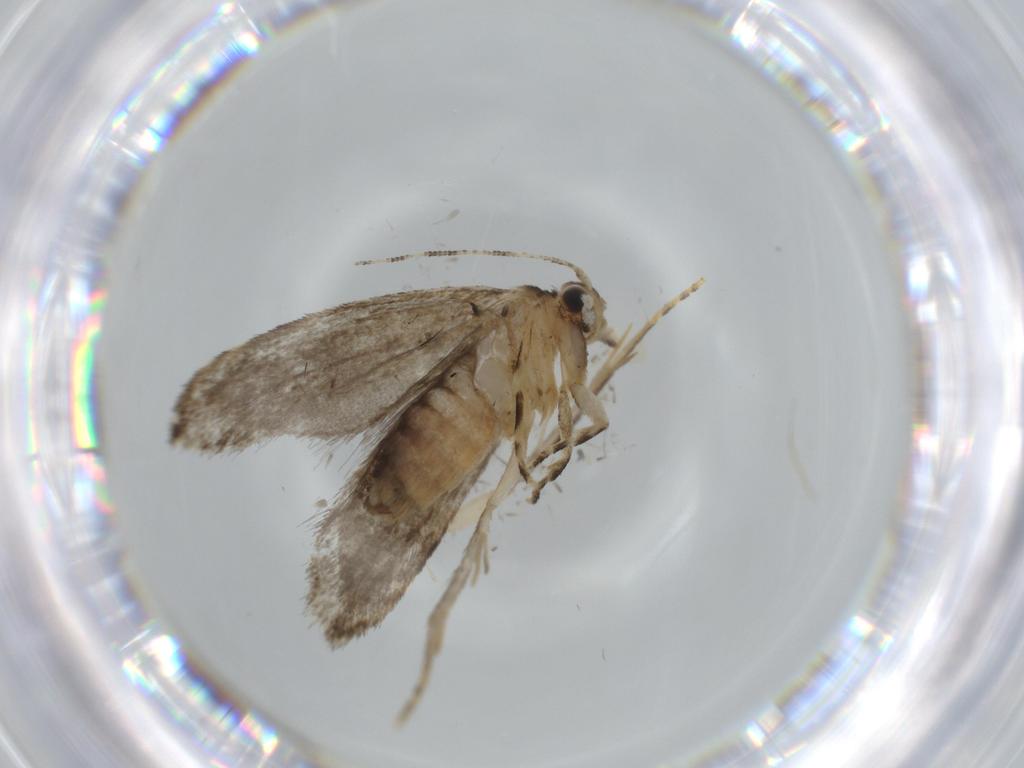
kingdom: Animalia
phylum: Arthropoda
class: Insecta
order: Lepidoptera
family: Tineidae
